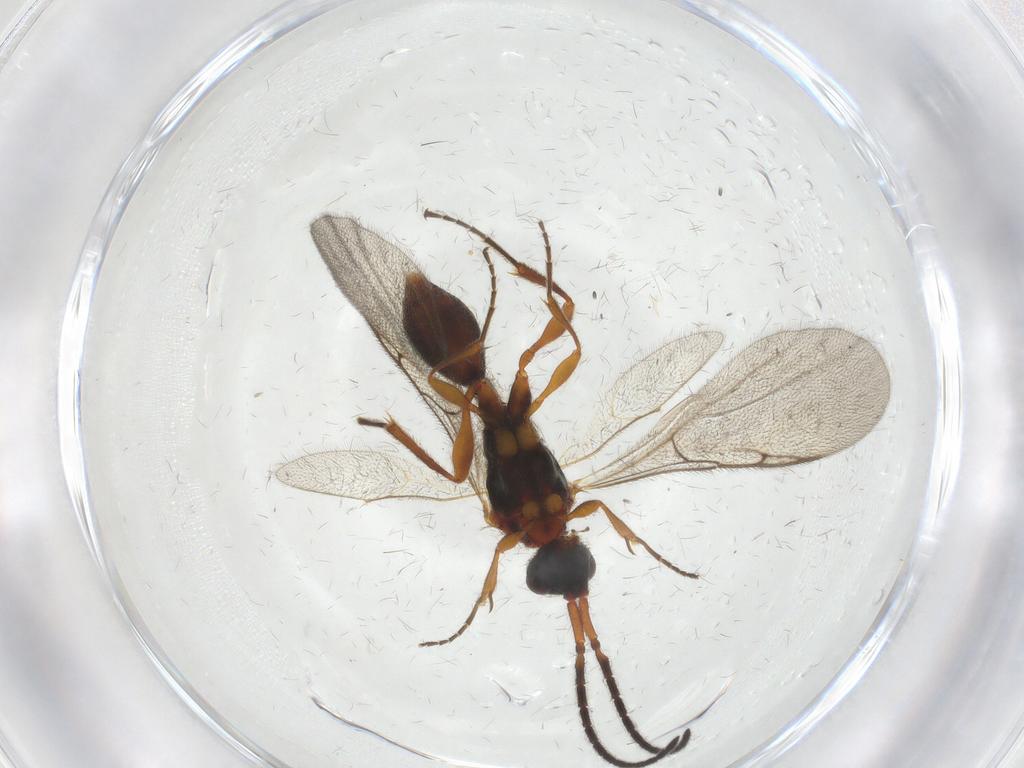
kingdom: Animalia
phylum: Arthropoda
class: Insecta
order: Hymenoptera
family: Diapriidae
